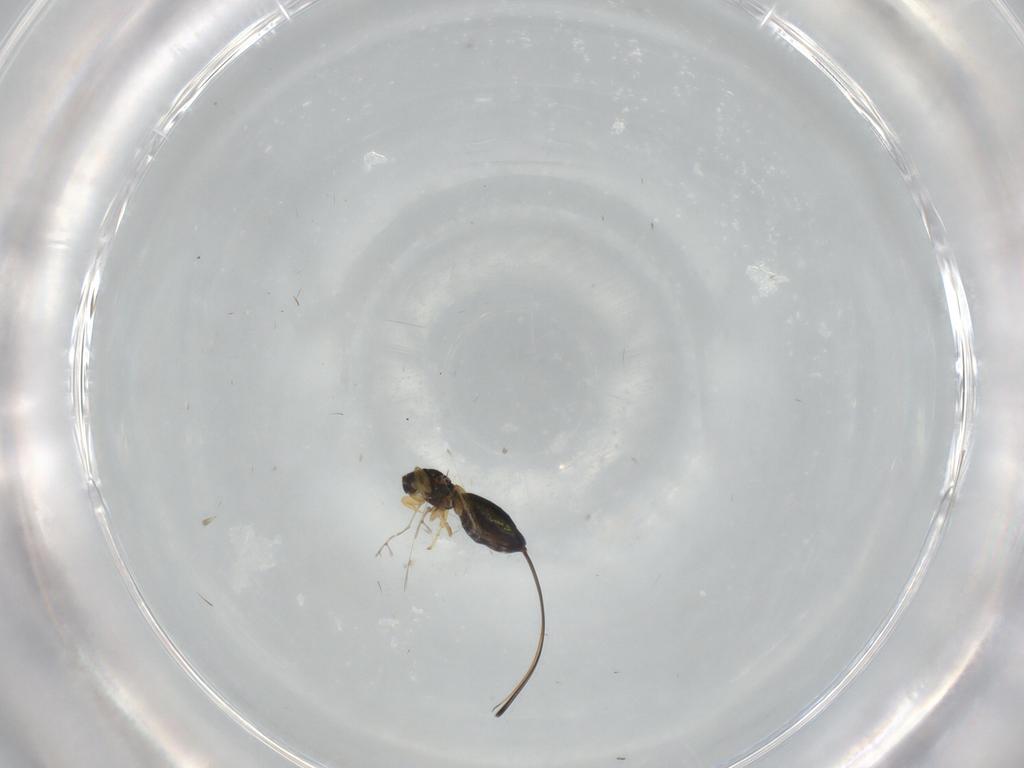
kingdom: Animalia
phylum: Arthropoda
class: Insecta
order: Hymenoptera
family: Agaonidae
